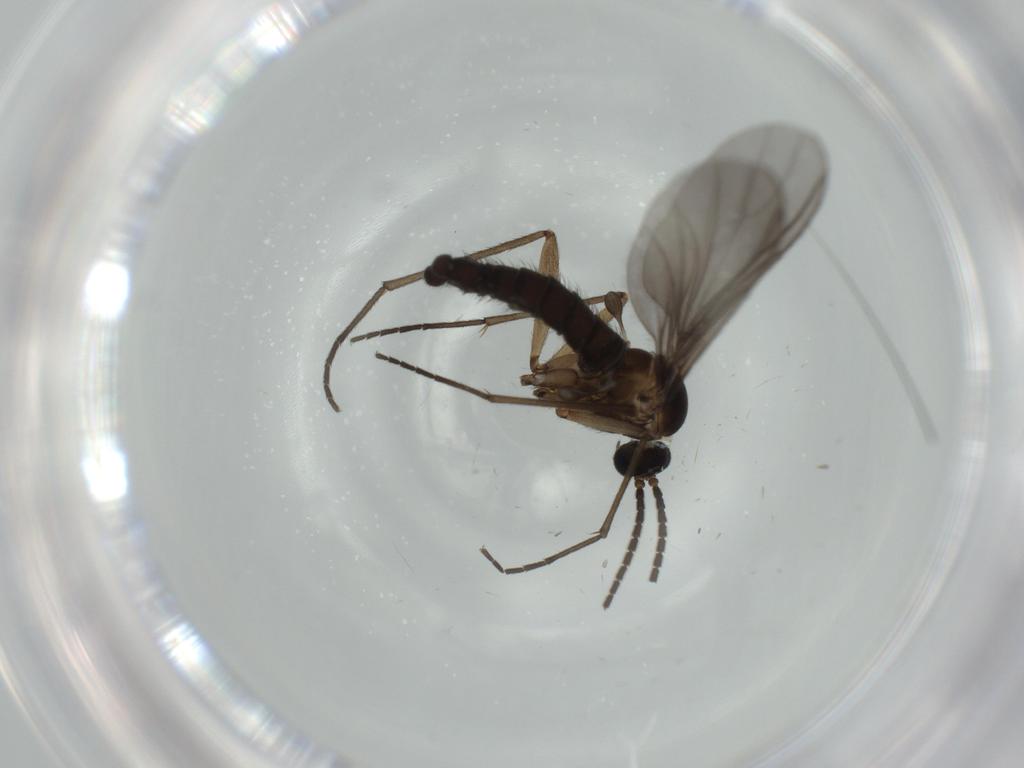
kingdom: Animalia
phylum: Arthropoda
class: Insecta
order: Diptera
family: Sciaridae
